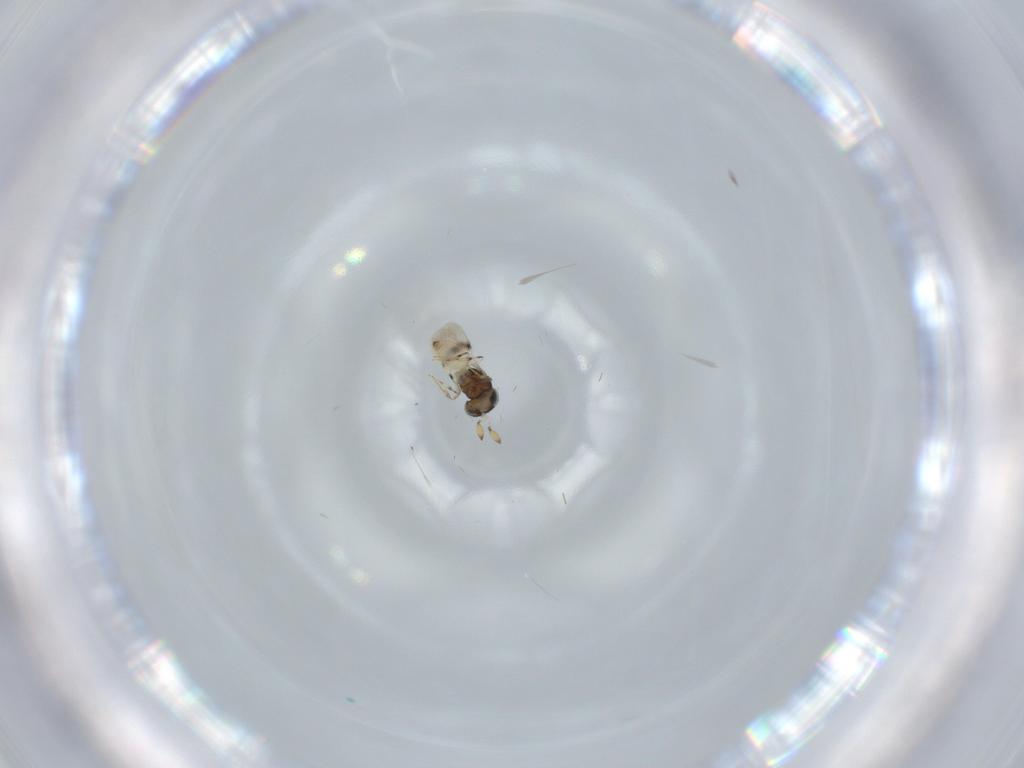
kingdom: Animalia
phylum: Arthropoda
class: Insecta
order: Hymenoptera
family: Scelionidae
